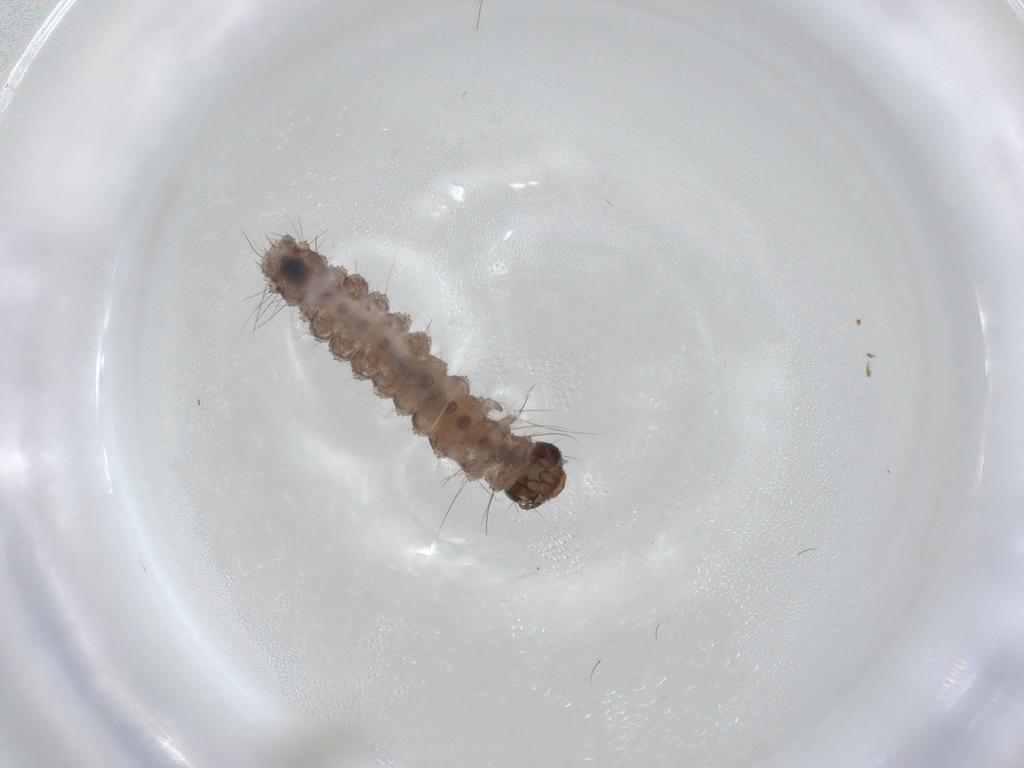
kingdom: Animalia
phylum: Arthropoda
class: Insecta
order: Lepidoptera
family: Erebidae
